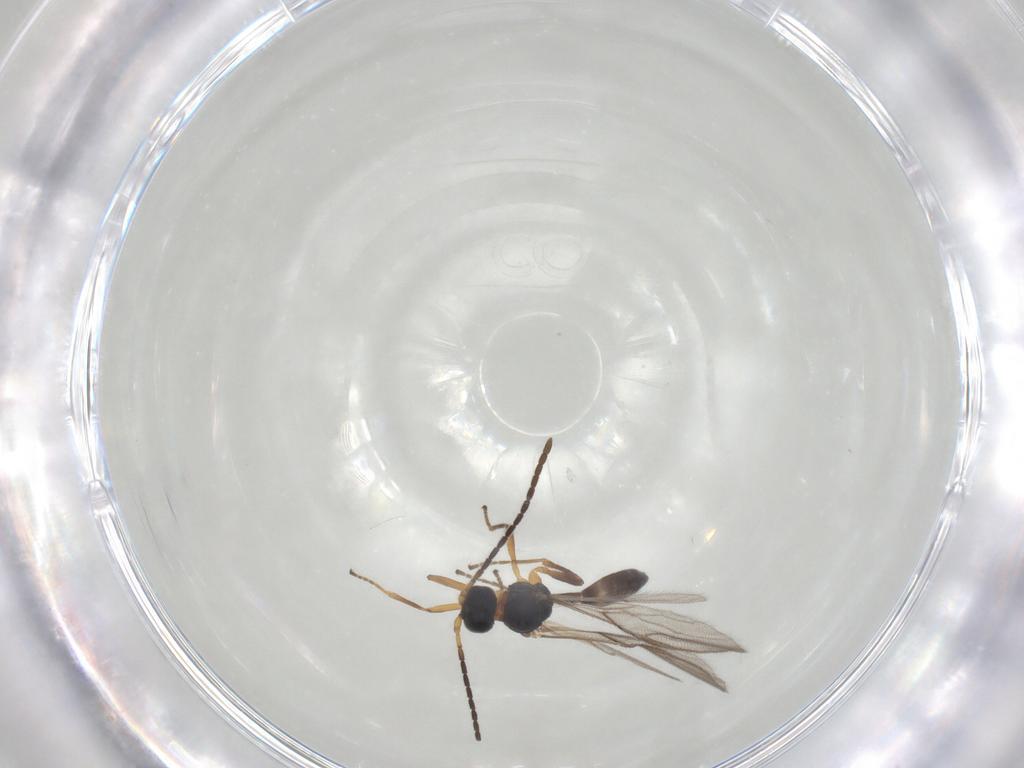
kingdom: Animalia
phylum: Arthropoda
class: Insecta
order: Hymenoptera
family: Braconidae
